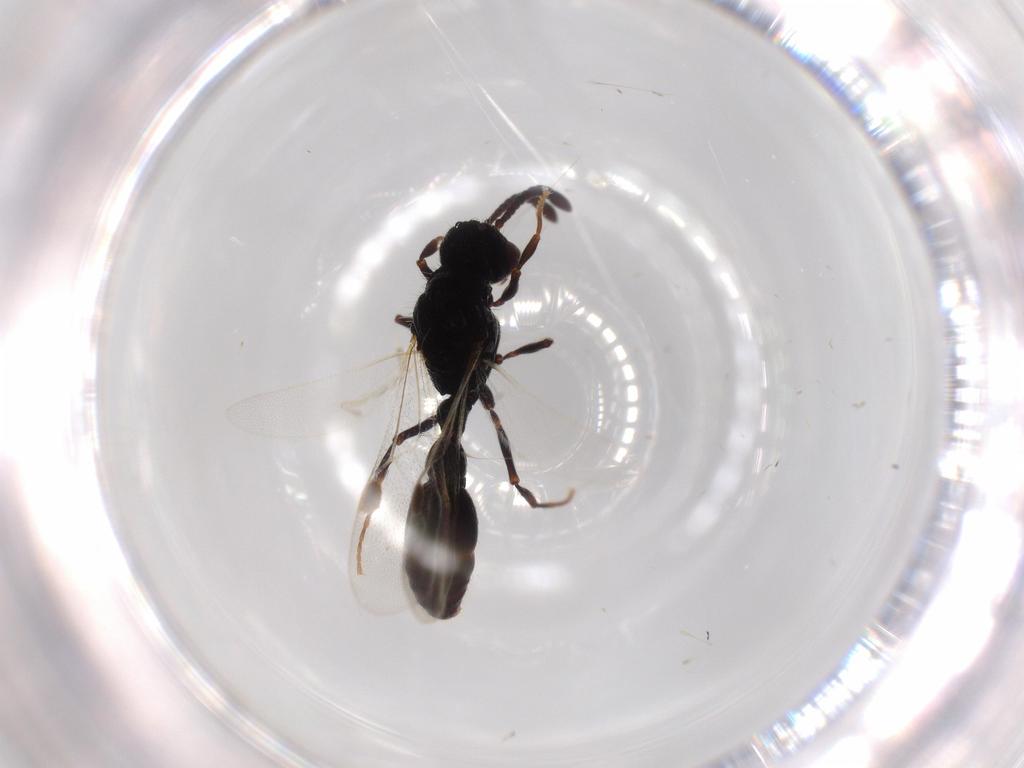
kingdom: Animalia
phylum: Arthropoda
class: Insecta
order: Hymenoptera
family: Formicidae
